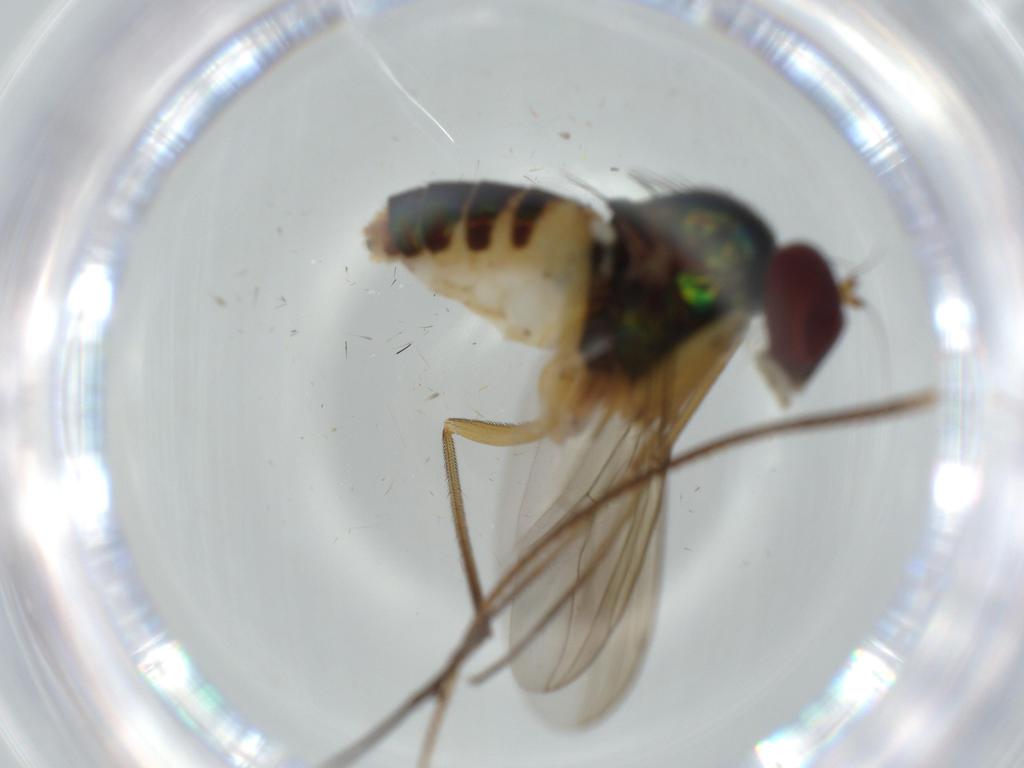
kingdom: Animalia
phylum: Arthropoda
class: Insecta
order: Diptera
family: Dolichopodidae
